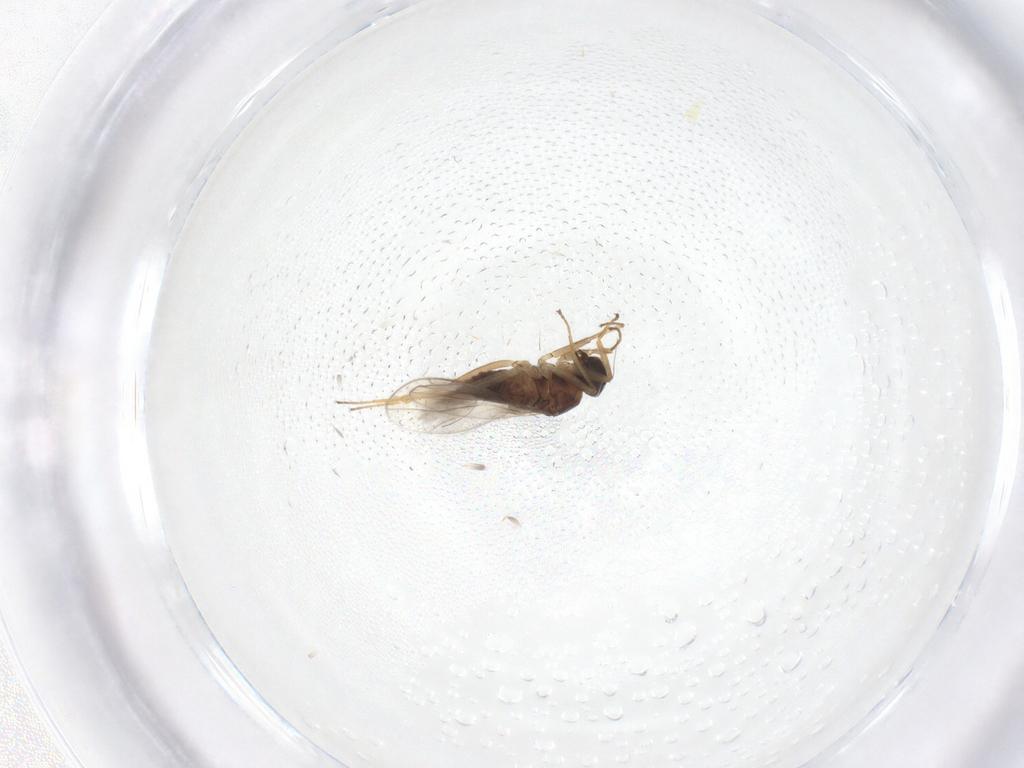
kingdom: Animalia
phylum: Arthropoda
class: Insecta
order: Diptera
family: Hybotidae
